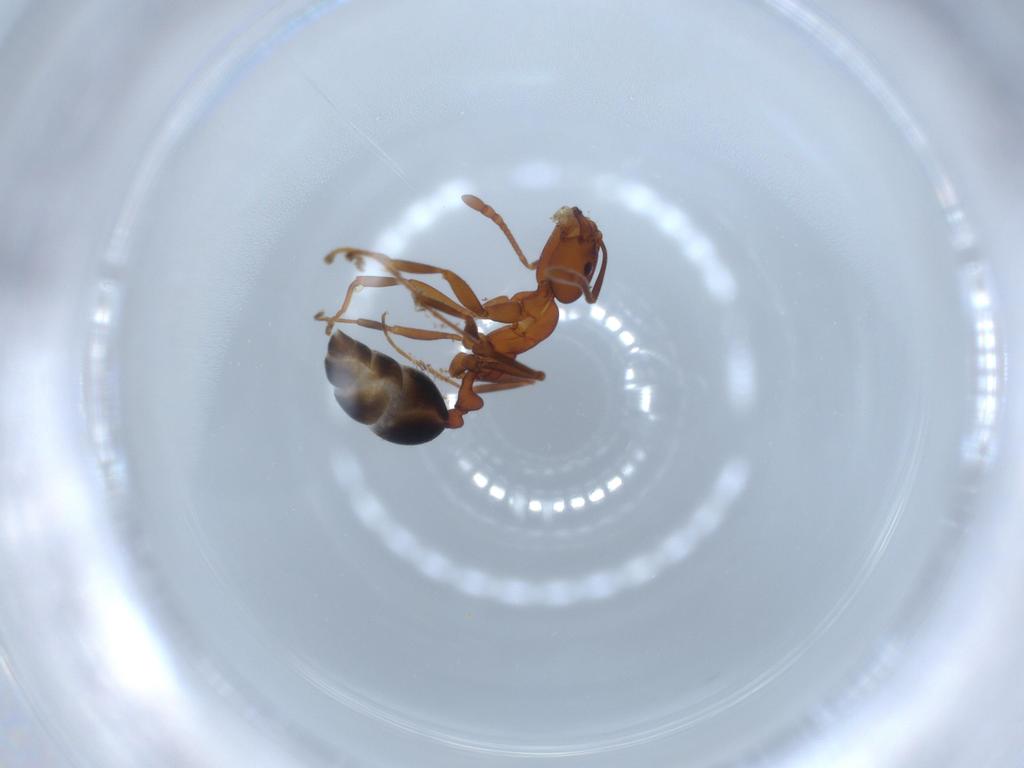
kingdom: Animalia
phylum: Arthropoda
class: Insecta
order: Hymenoptera
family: Formicidae
